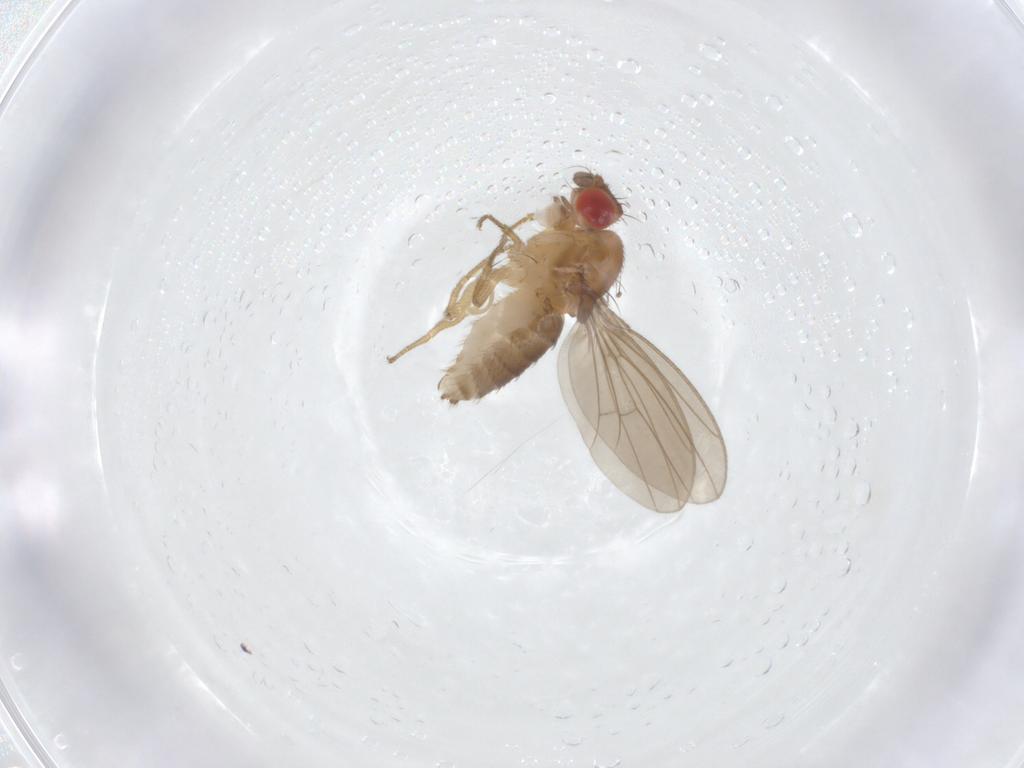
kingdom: Animalia
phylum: Arthropoda
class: Insecta
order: Diptera
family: Drosophilidae
